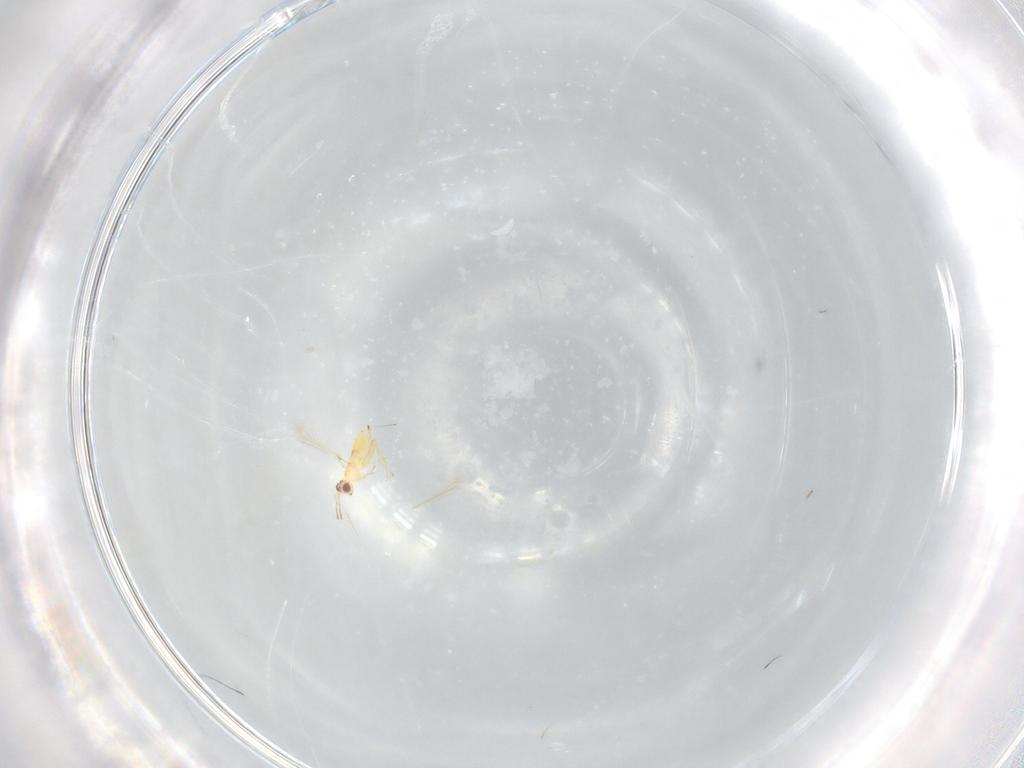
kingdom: Animalia
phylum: Arthropoda
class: Insecta
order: Hymenoptera
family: Mymaridae
